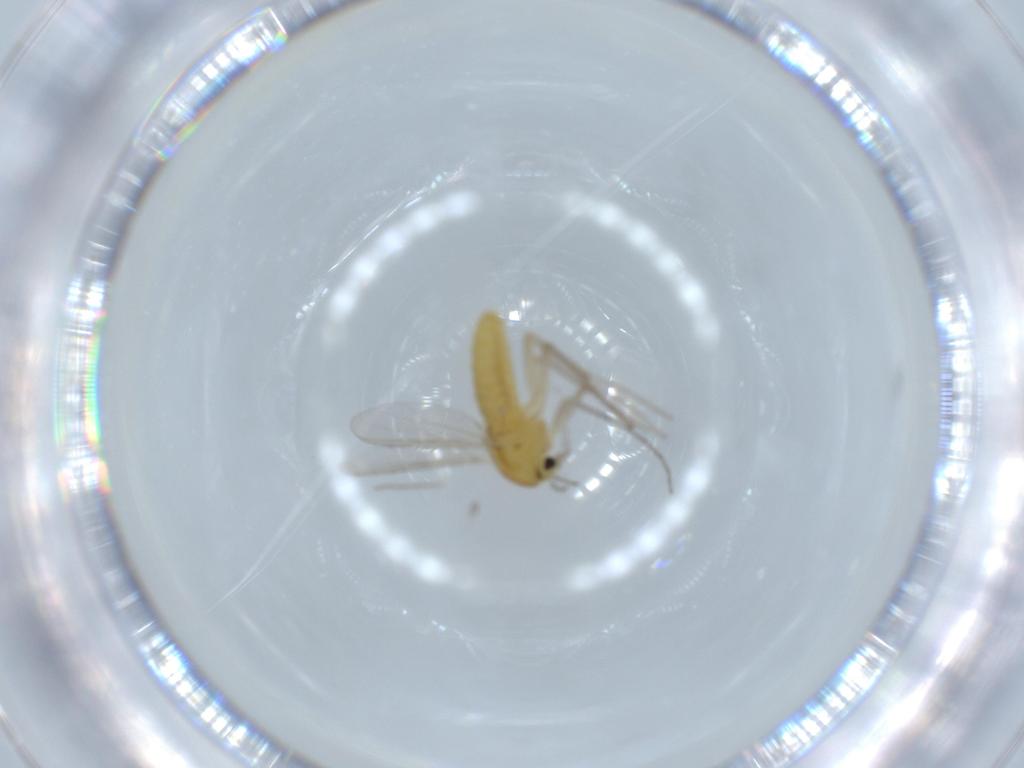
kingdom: Animalia
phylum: Arthropoda
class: Insecta
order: Diptera
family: Chironomidae
